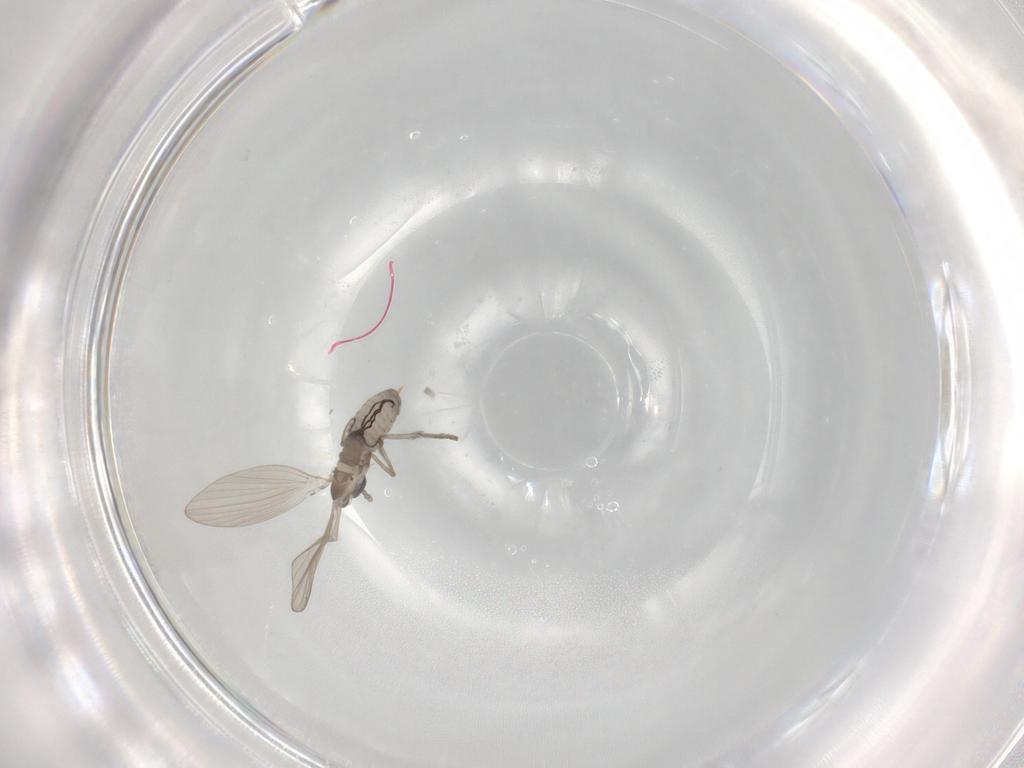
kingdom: Animalia
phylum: Arthropoda
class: Insecta
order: Diptera
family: Psychodidae
